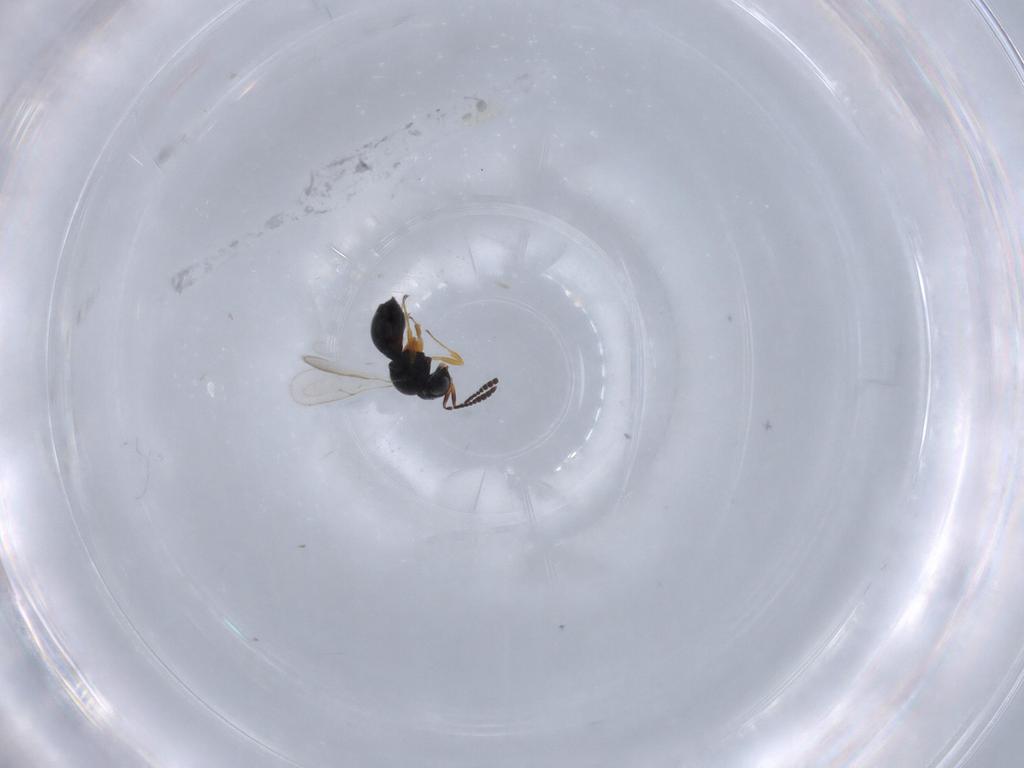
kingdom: Animalia
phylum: Arthropoda
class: Insecta
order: Hymenoptera
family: Scelionidae
